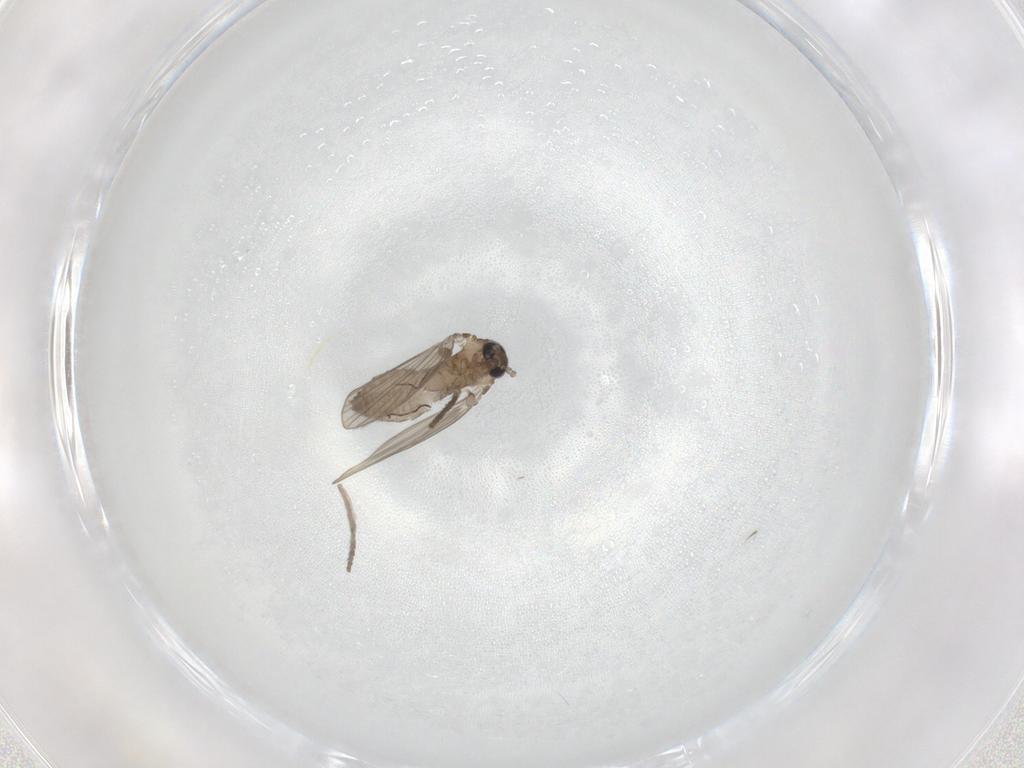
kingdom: Animalia
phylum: Arthropoda
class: Insecta
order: Diptera
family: Psychodidae
